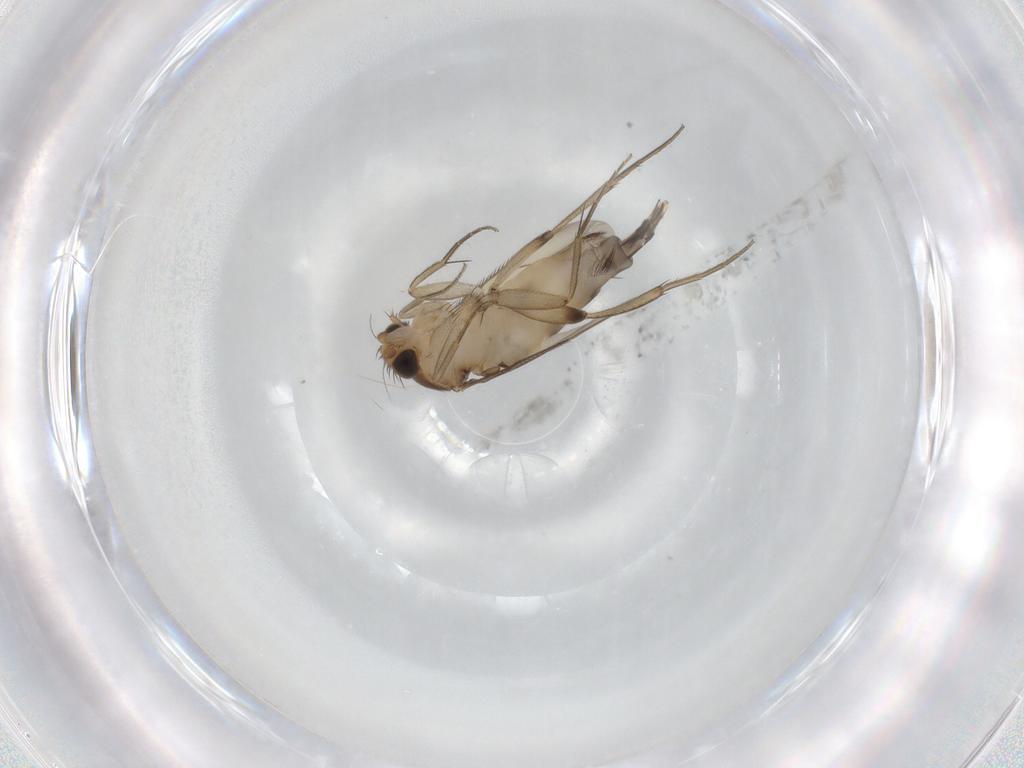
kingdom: Animalia
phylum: Arthropoda
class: Insecta
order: Diptera
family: Phoridae
